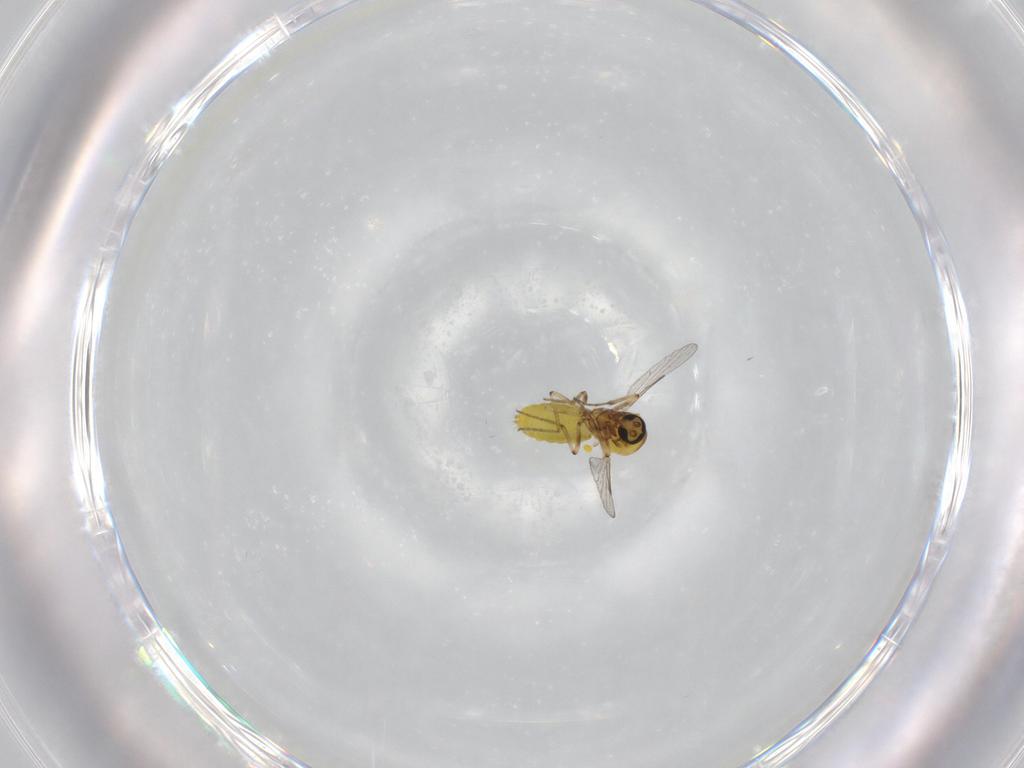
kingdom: Animalia
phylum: Arthropoda
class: Insecta
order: Diptera
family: Ceratopogonidae
